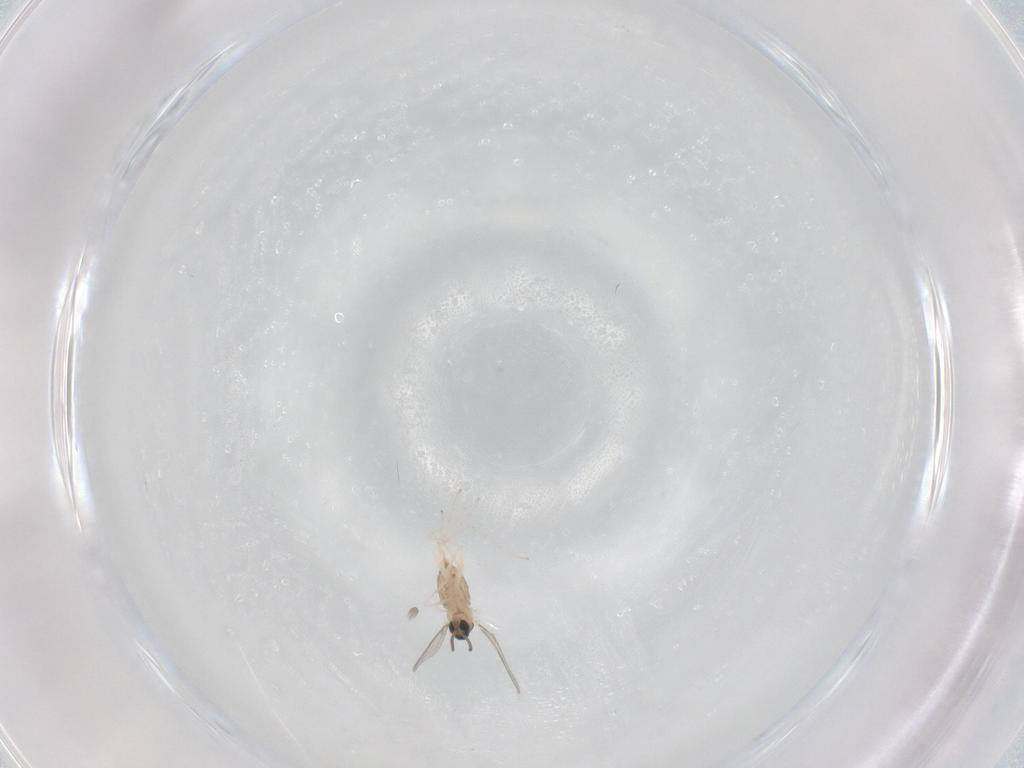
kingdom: Animalia
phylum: Arthropoda
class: Insecta
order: Diptera
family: Cecidomyiidae
